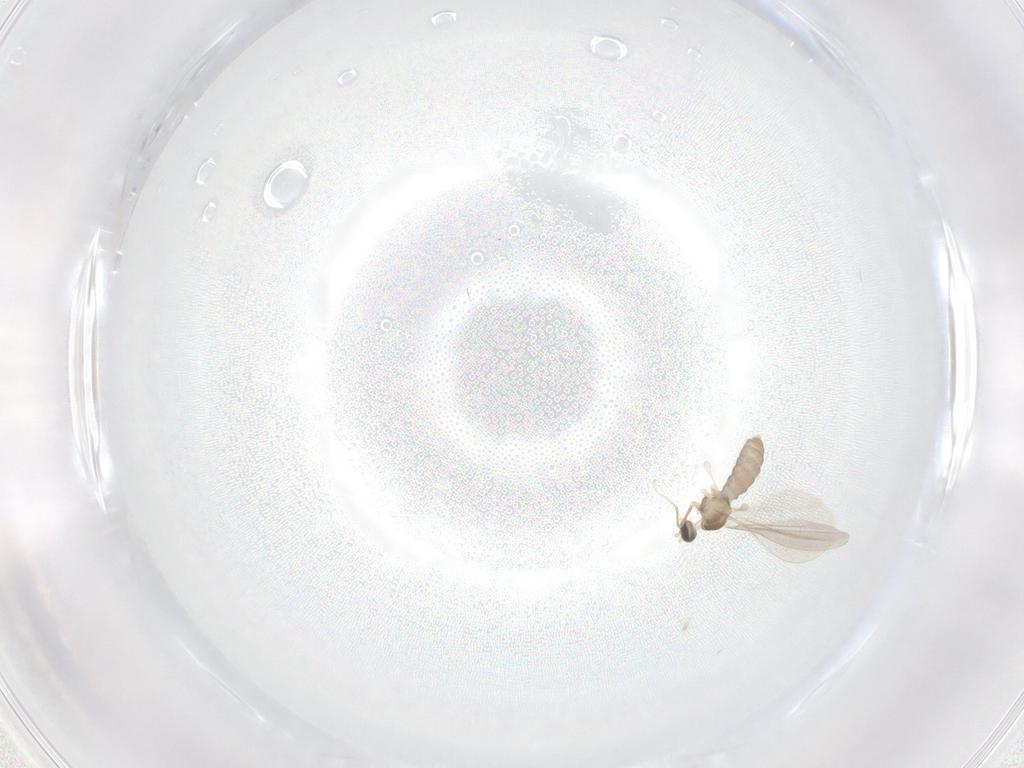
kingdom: Animalia
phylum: Arthropoda
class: Insecta
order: Diptera
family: Cecidomyiidae
